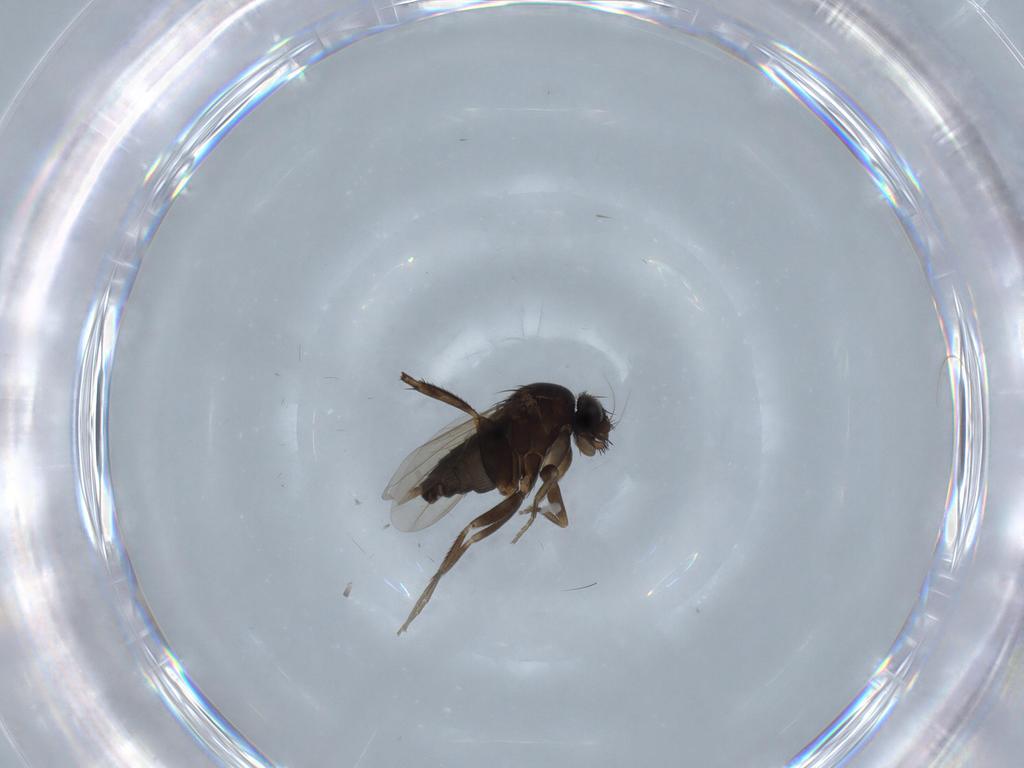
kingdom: Animalia
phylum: Arthropoda
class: Insecta
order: Diptera
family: Phoridae
